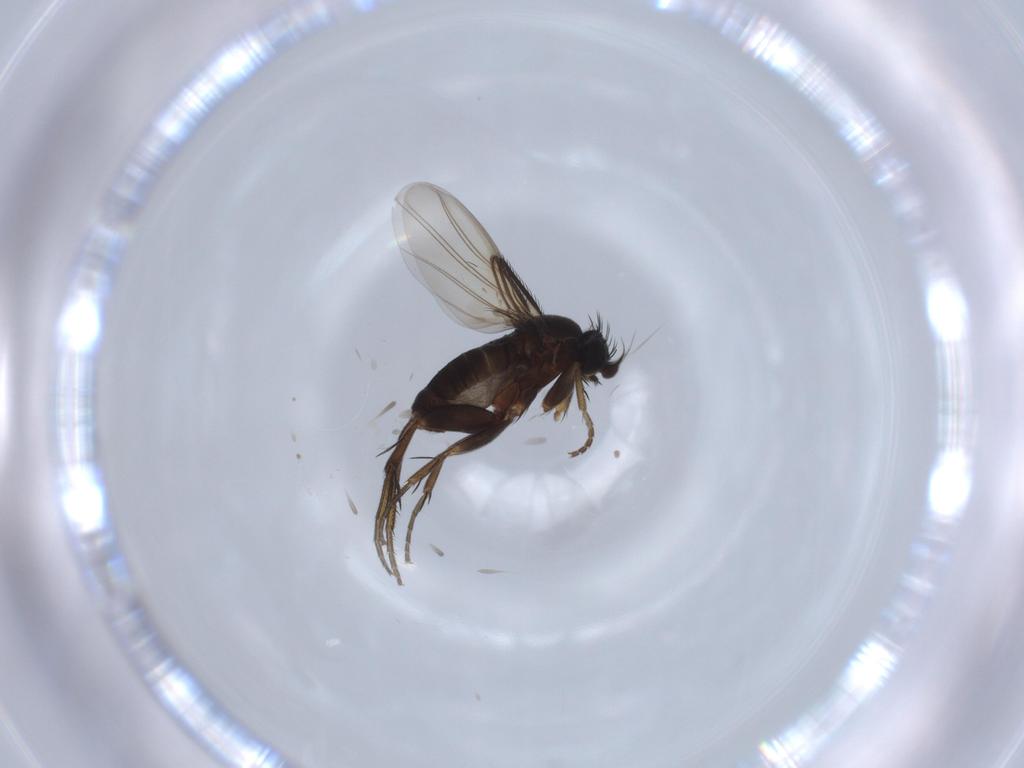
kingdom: Animalia
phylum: Arthropoda
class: Insecta
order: Diptera
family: Phoridae
